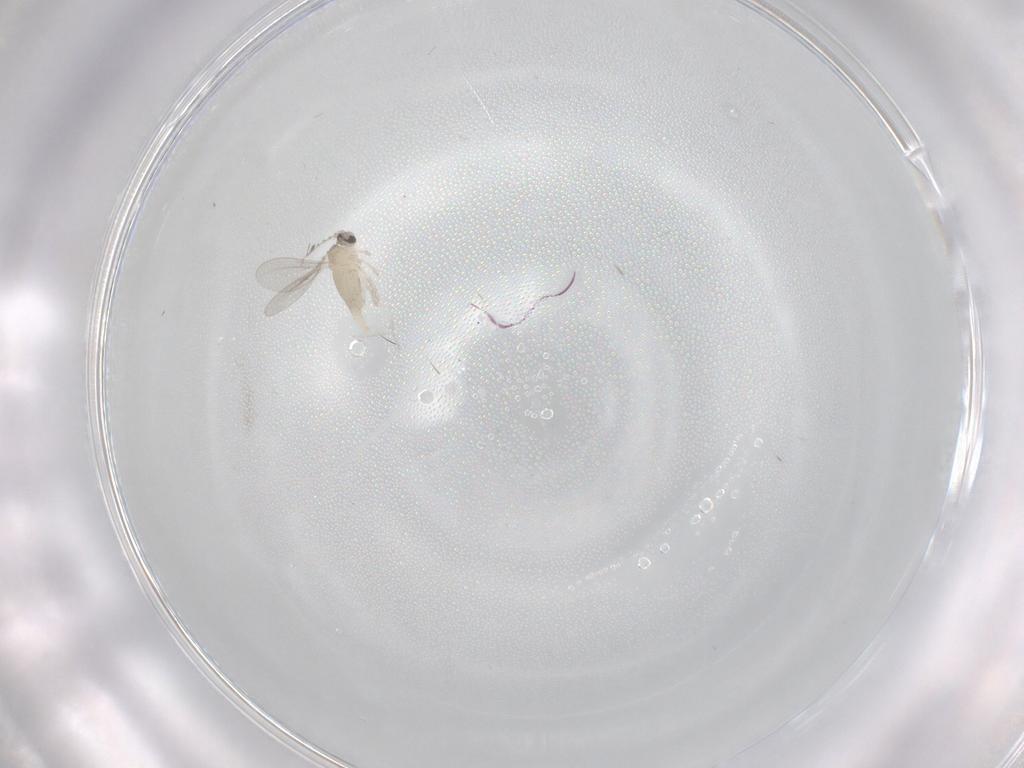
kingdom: Animalia
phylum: Arthropoda
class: Insecta
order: Diptera
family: Cecidomyiidae
